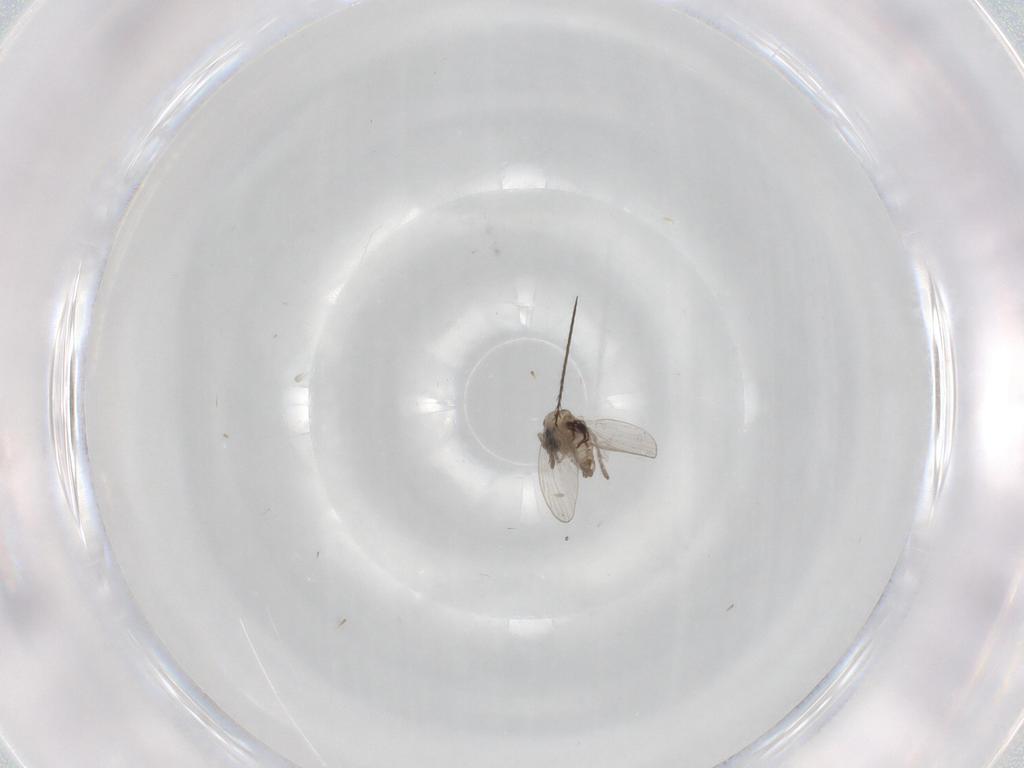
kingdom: Animalia
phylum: Arthropoda
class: Insecta
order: Diptera
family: Psychodidae
